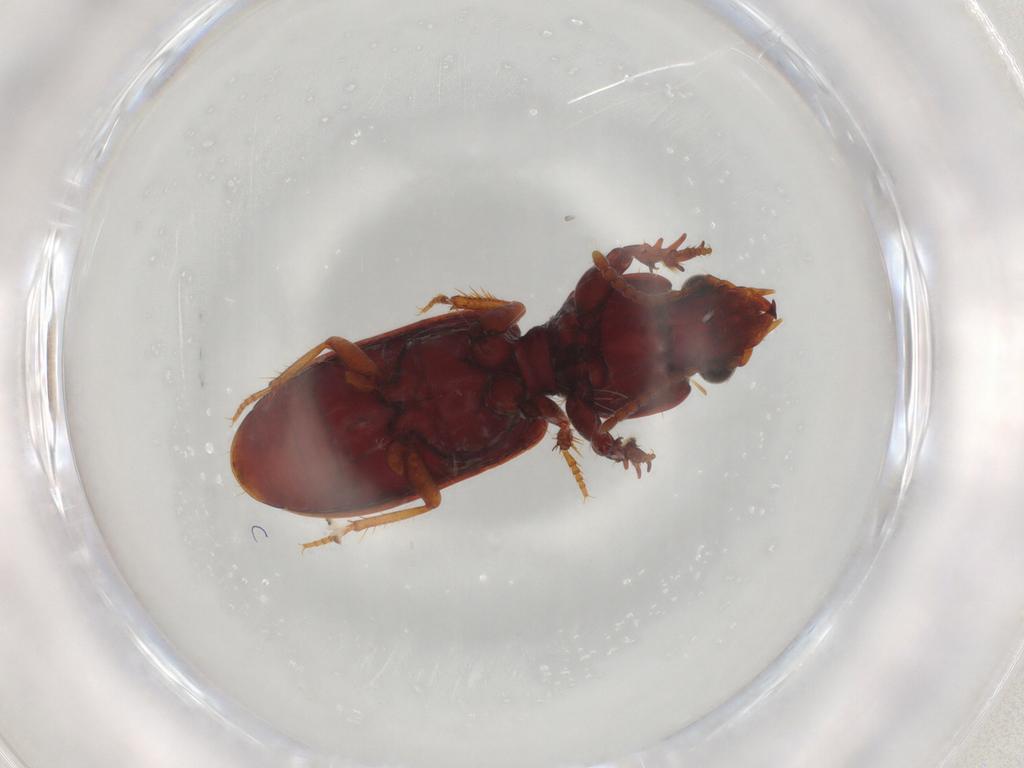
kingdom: Animalia
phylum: Arthropoda
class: Insecta
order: Coleoptera
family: Carabidae
